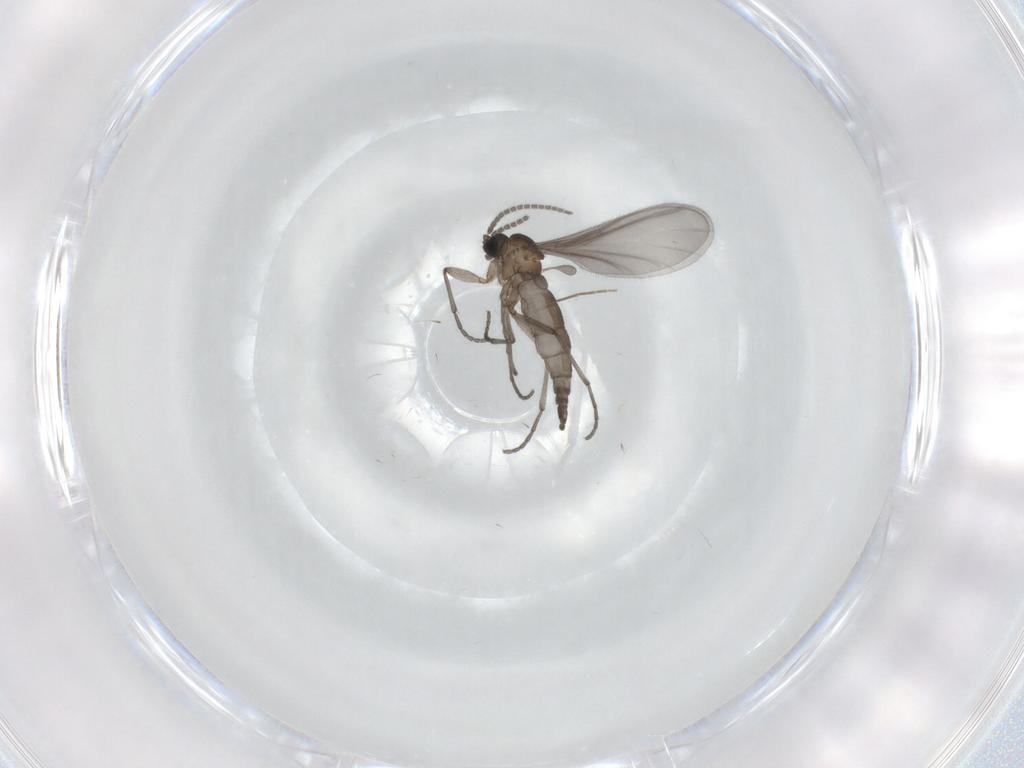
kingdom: Animalia
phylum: Arthropoda
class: Insecta
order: Diptera
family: Sciaridae
